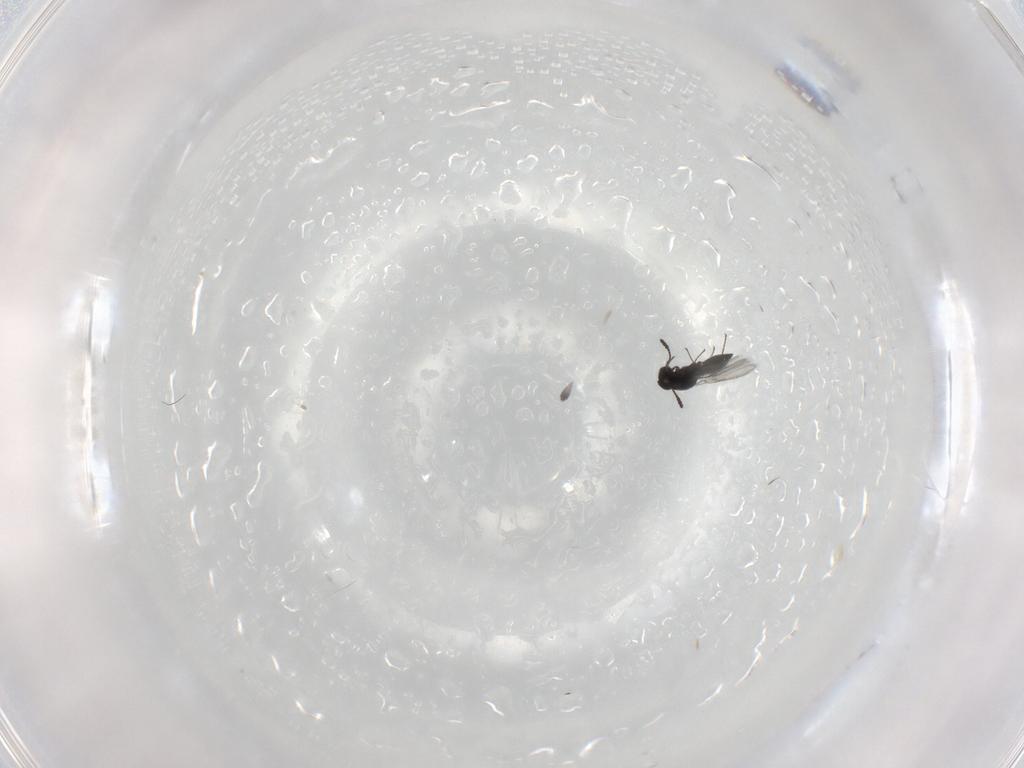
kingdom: Animalia
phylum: Arthropoda
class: Insecta
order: Hymenoptera
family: Scelionidae
